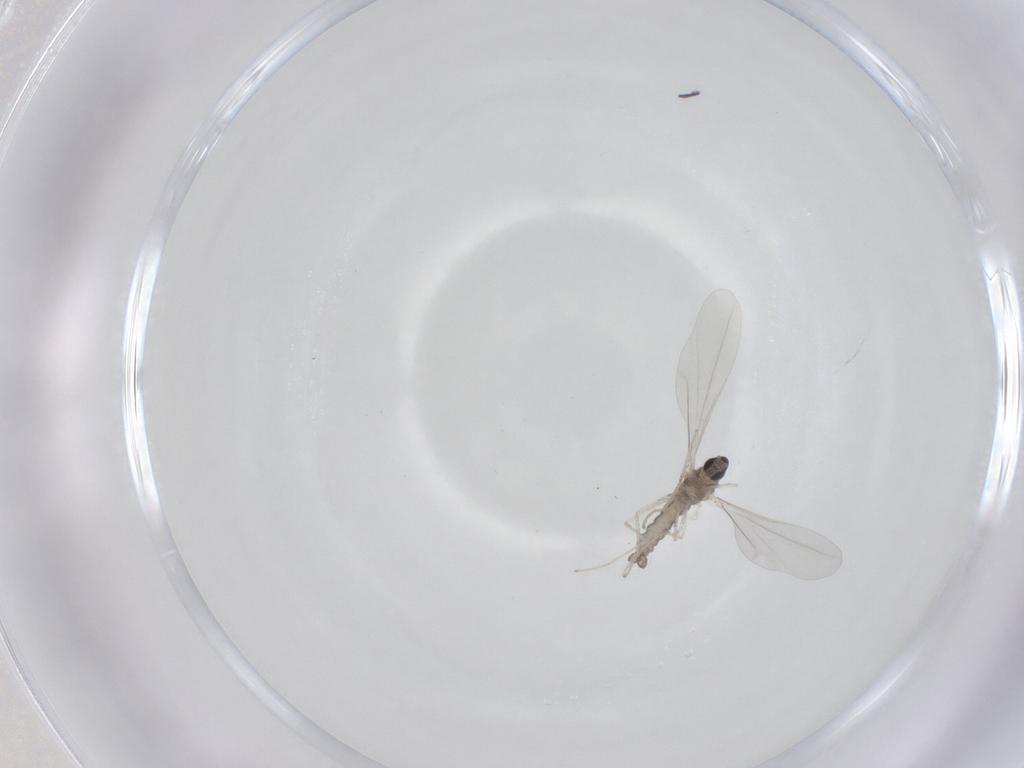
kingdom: Animalia
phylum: Arthropoda
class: Insecta
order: Diptera
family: Cecidomyiidae
